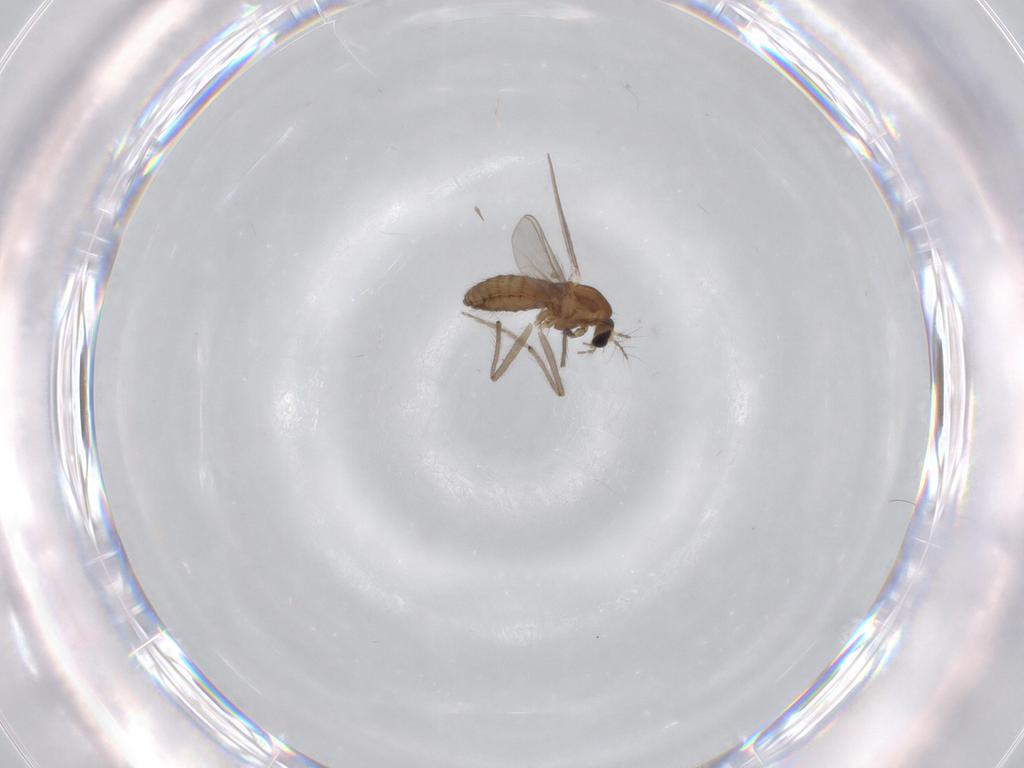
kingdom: Animalia
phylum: Arthropoda
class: Insecta
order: Diptera
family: Chironomidae
